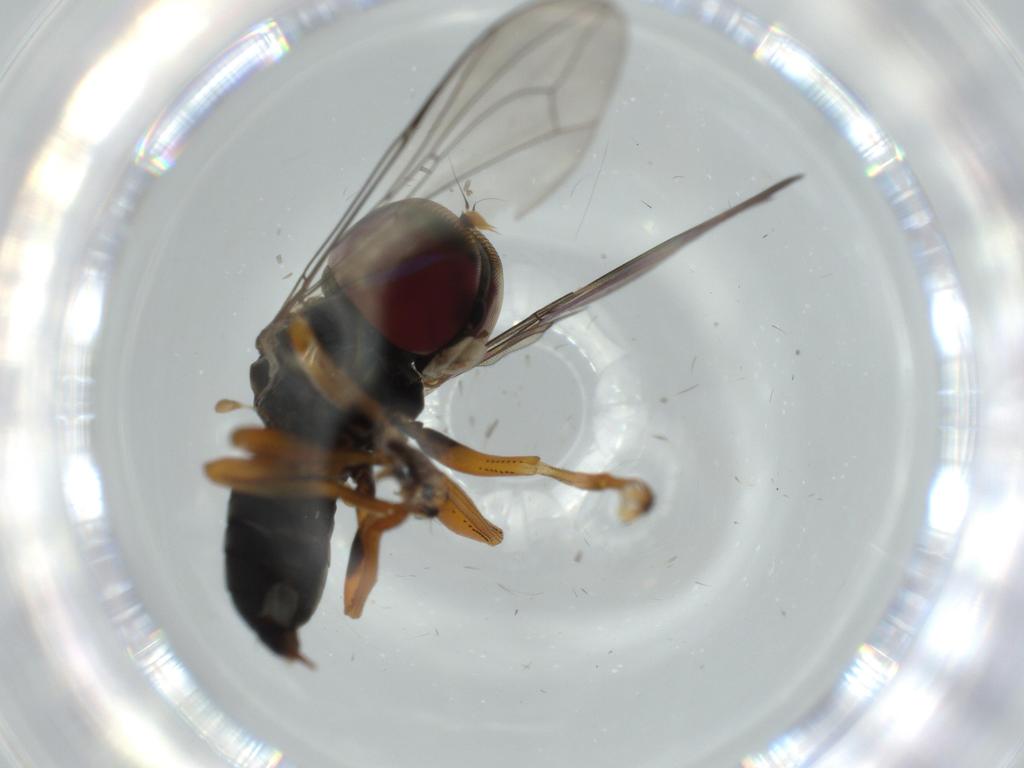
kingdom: Animalia
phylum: Arthropoda
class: Insecta
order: Diptera
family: Pipunculidae
